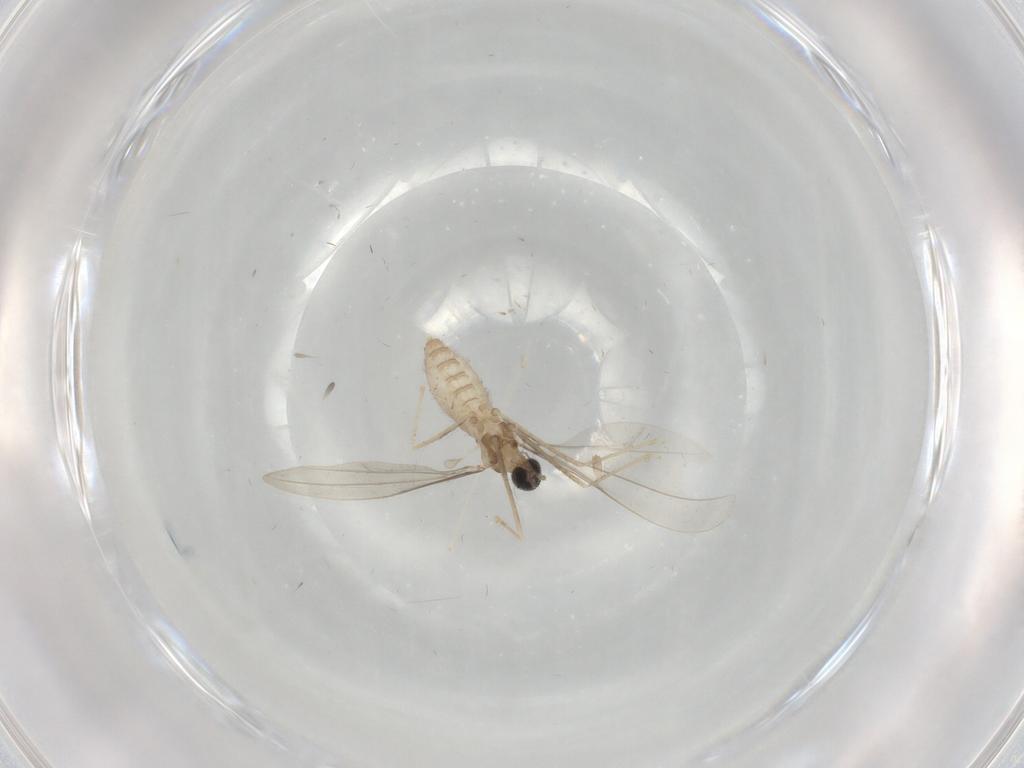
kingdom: Animalia
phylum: Arthropoda
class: Insecta
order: Diptera
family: Cecidomyiidae
